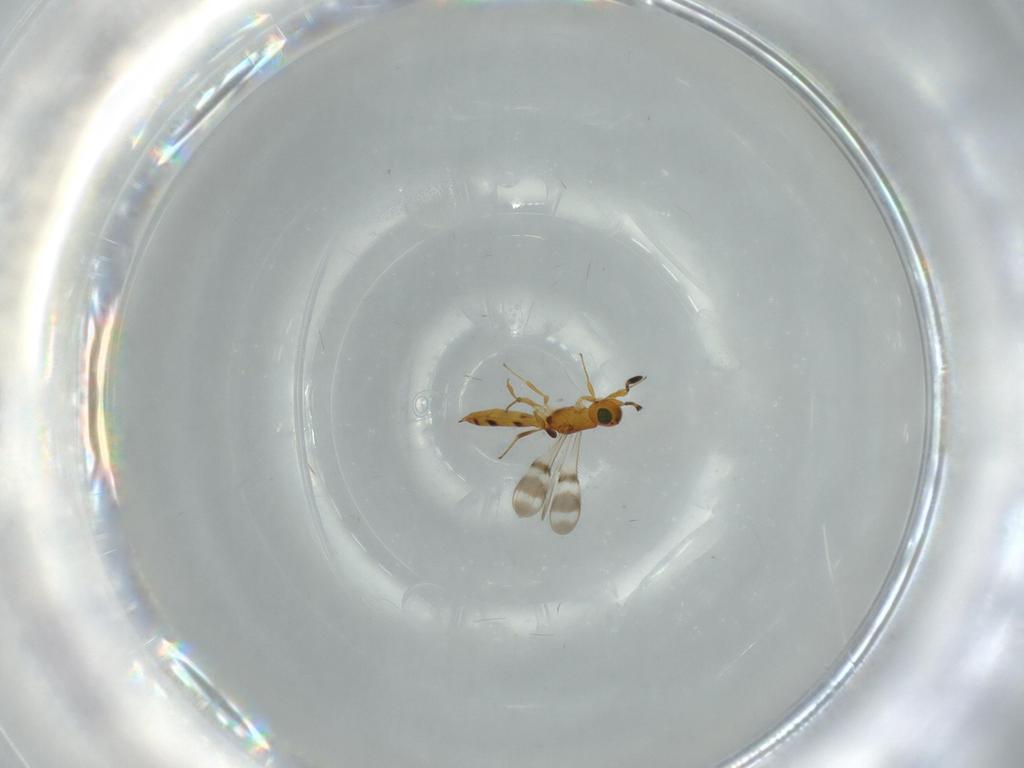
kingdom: Animalia
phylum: Arthropoda
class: Insecta
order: Hymenoptera
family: Scelionidae
